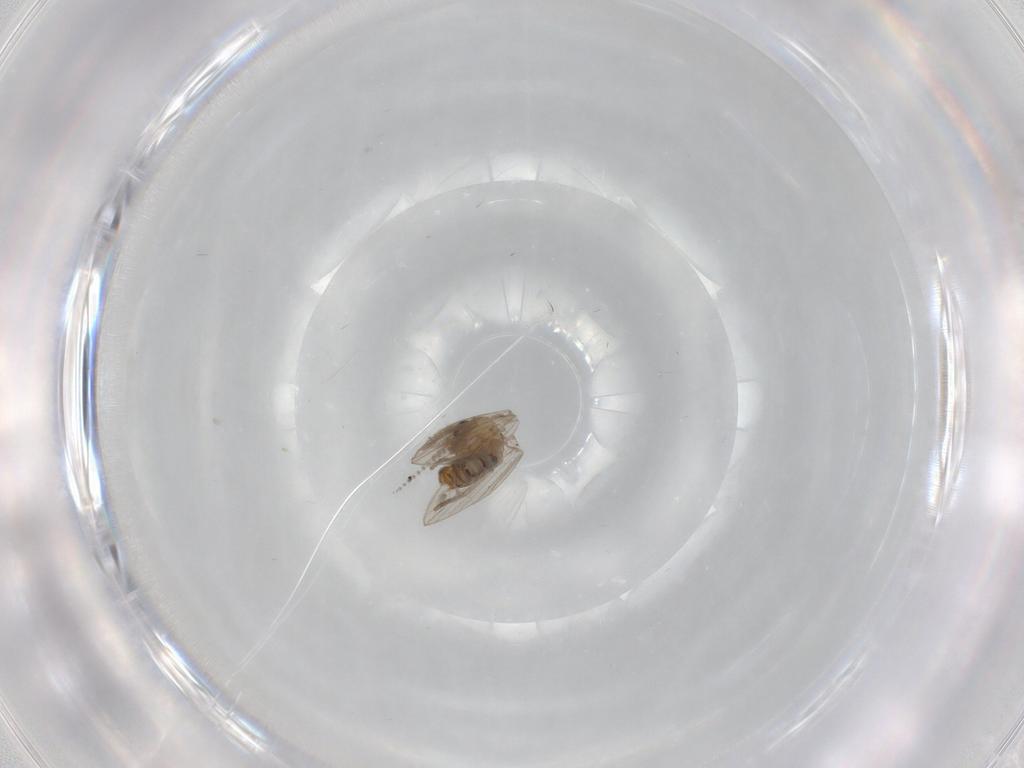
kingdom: Animalia
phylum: Arthropoda
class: Insecta
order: Diptera
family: Psychodidae
